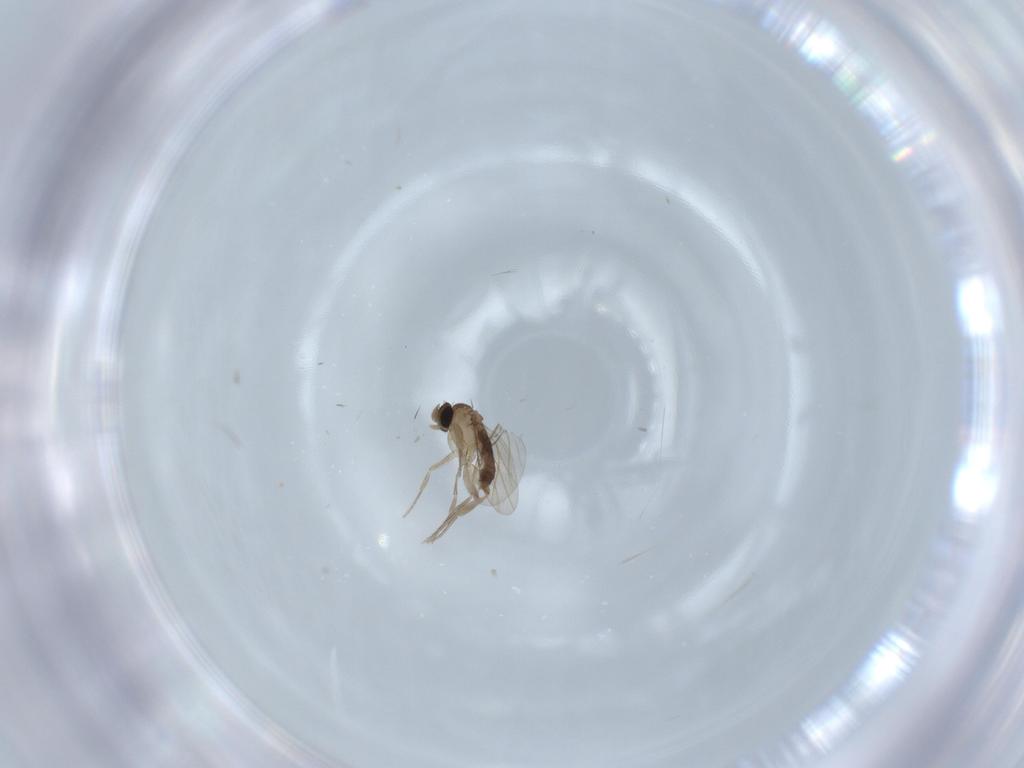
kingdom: Animalia
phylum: Arthropoda
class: Insecta
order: Diptera
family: Cecidomyiidae
